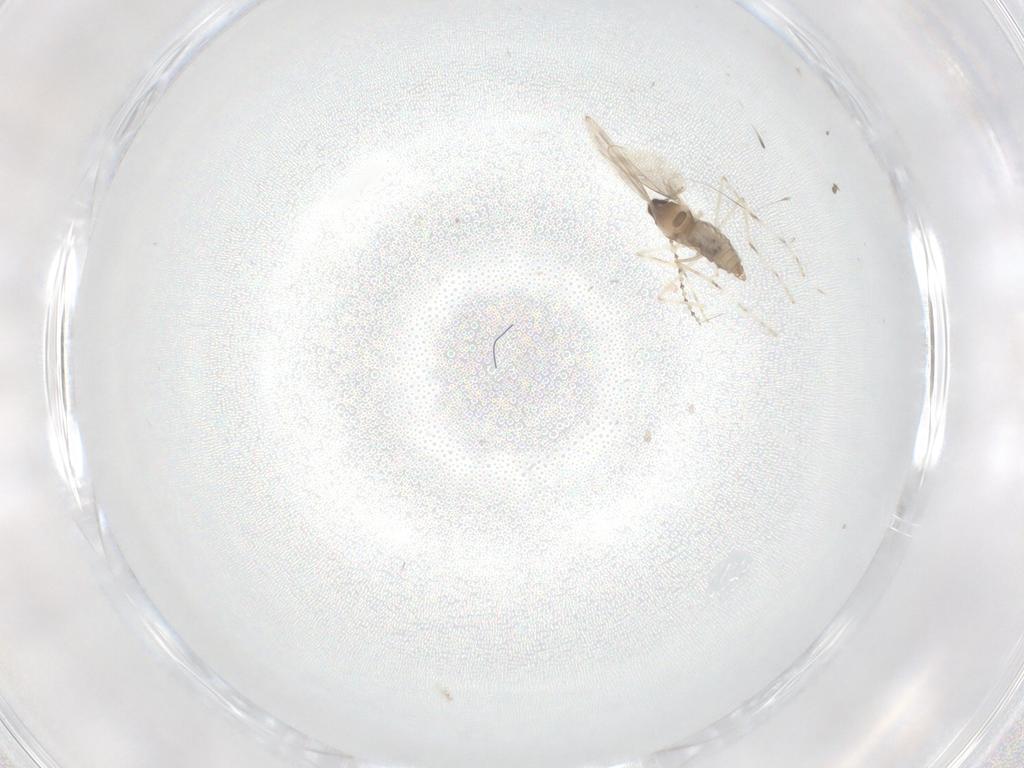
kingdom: Animalia
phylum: Arthropoda
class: Insecta
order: Diptera
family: Cecidomyiidae
